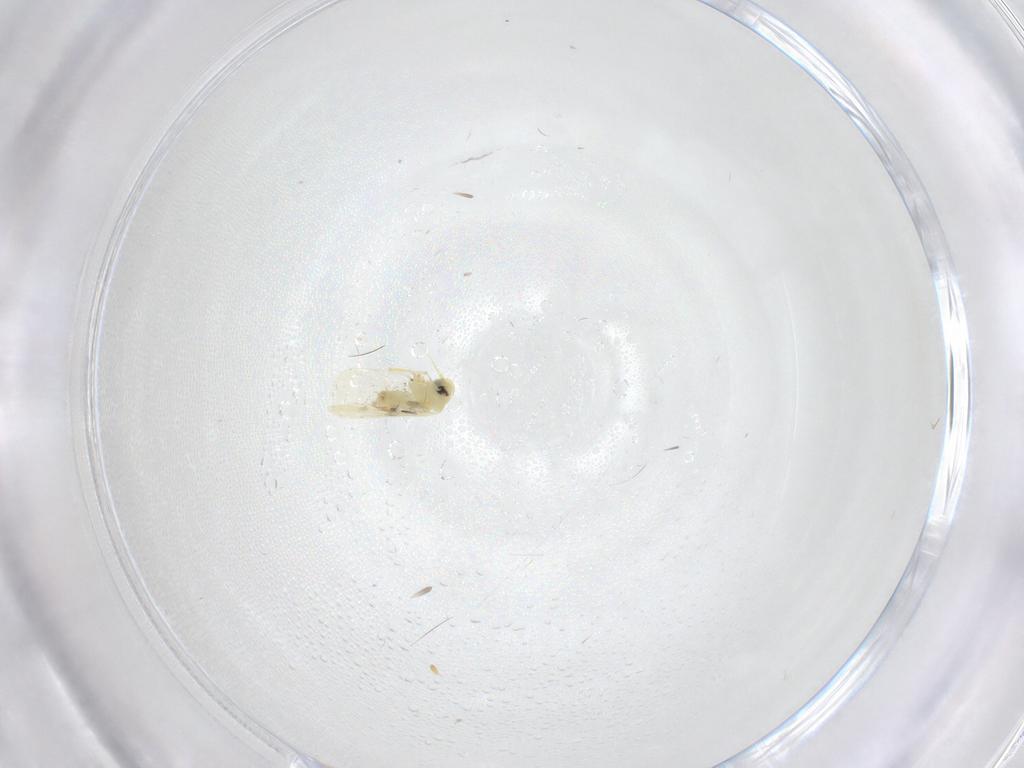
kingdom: Animalia
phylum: Arthropoda
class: Insecta
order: Hemiptera
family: Aleyrodidae
